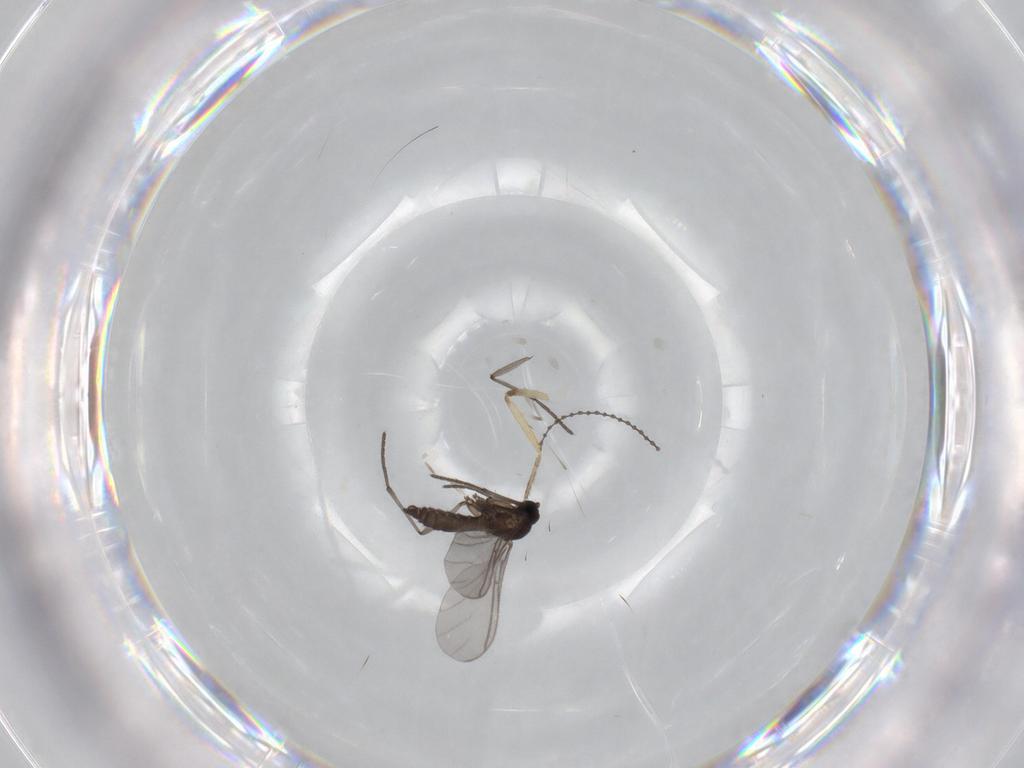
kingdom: Animalia
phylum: Arthropoda
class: Insecta
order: Diptera
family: Sciaridae
